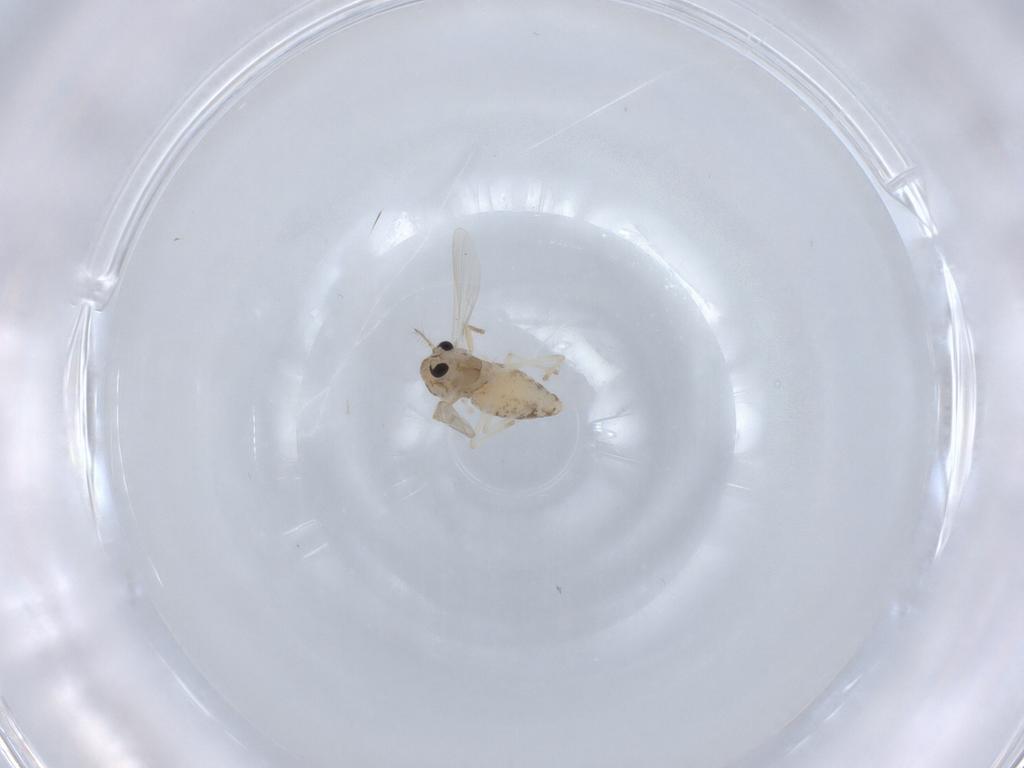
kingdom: Animalia
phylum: Arthropoda
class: Insecta
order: Diptera
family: Chironomidae
